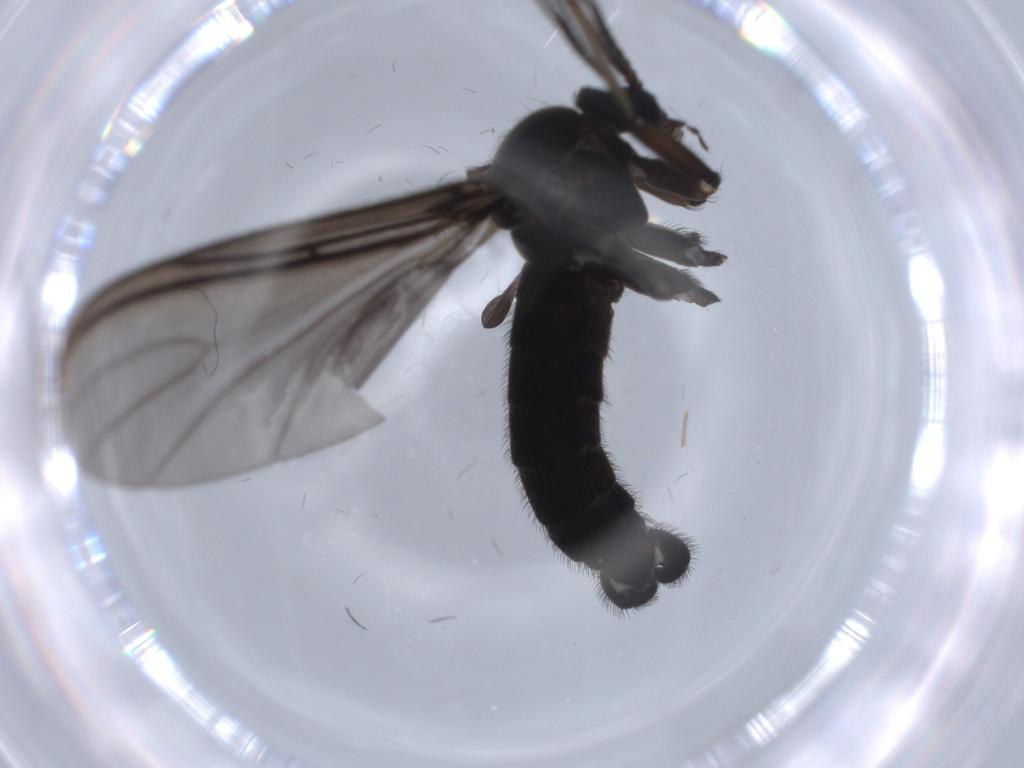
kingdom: Animalia
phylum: Arthropoda
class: Insecta
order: Diptera
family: Sciaridae
